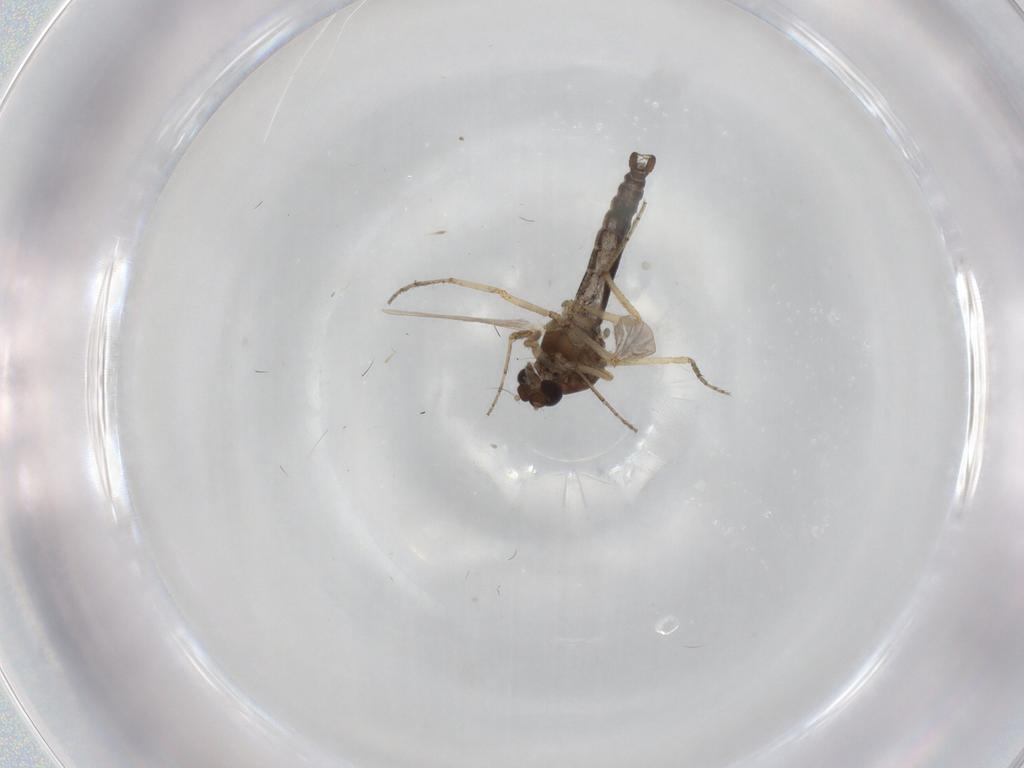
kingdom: Animalia
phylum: Arthropoda
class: Insecta
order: Diptera
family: Ceratopogonidae
